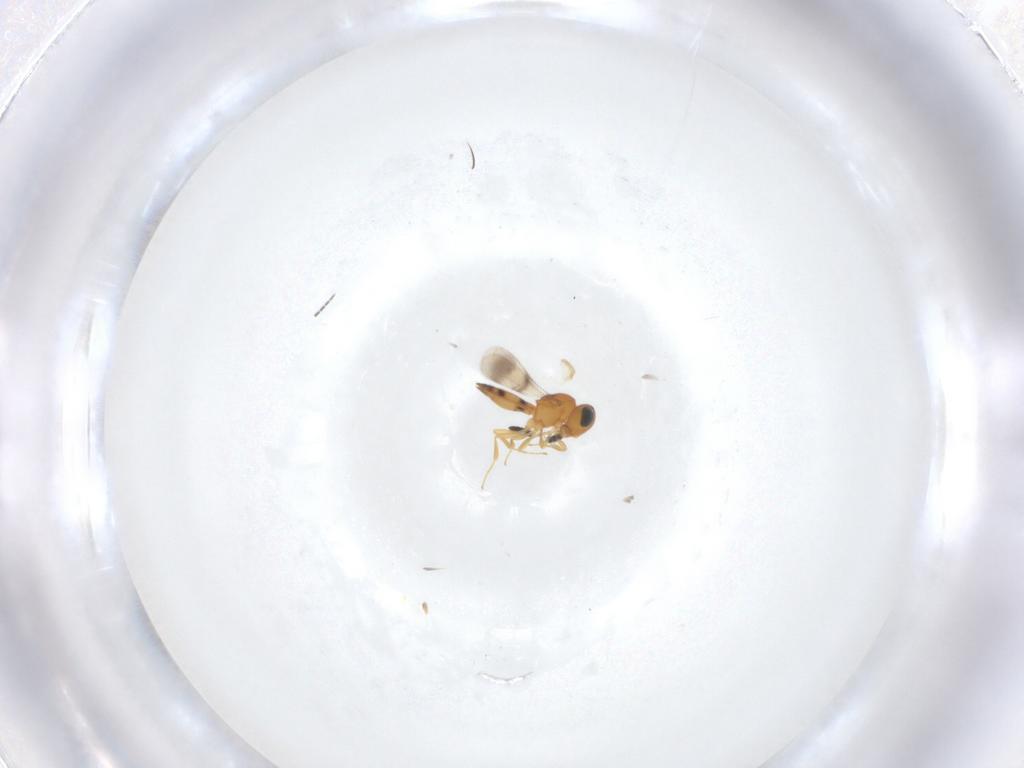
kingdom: Animalia
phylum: Arthropoda
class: Insecta
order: Hymenoptera
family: Scelionidae
